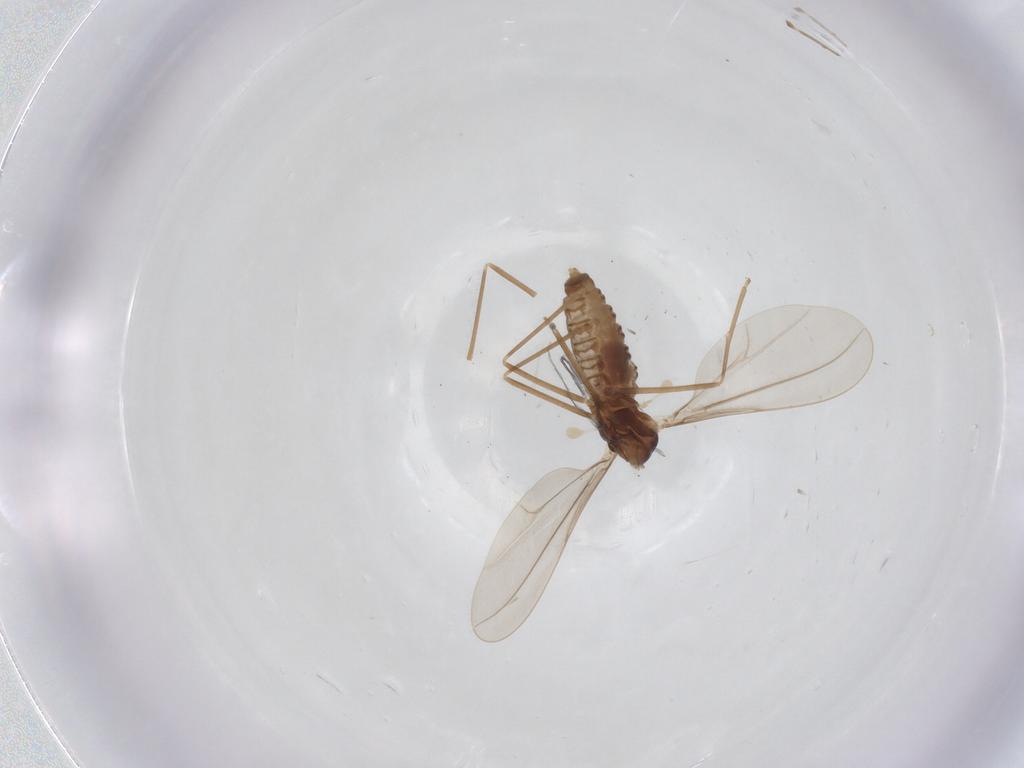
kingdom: Animalia
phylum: Arthropoda
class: Insecta
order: Diptera
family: Cecidomyiidae
